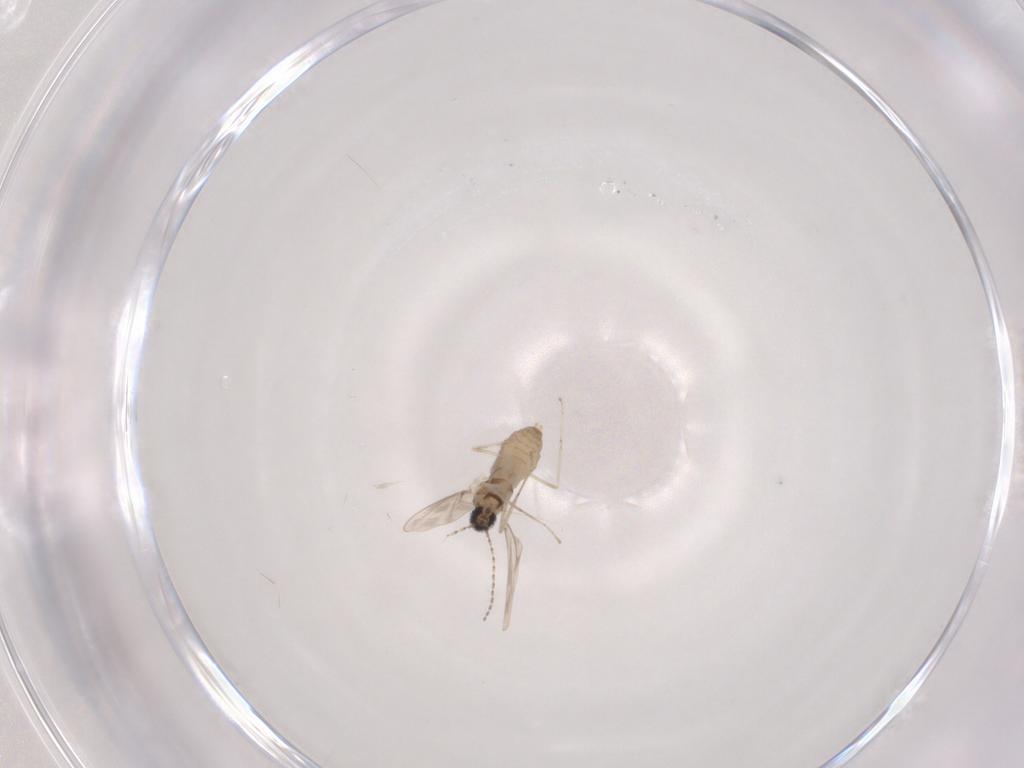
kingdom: Animalia
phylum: Arthropoda
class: Insecta
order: Diptera
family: Cecidomyiidae
